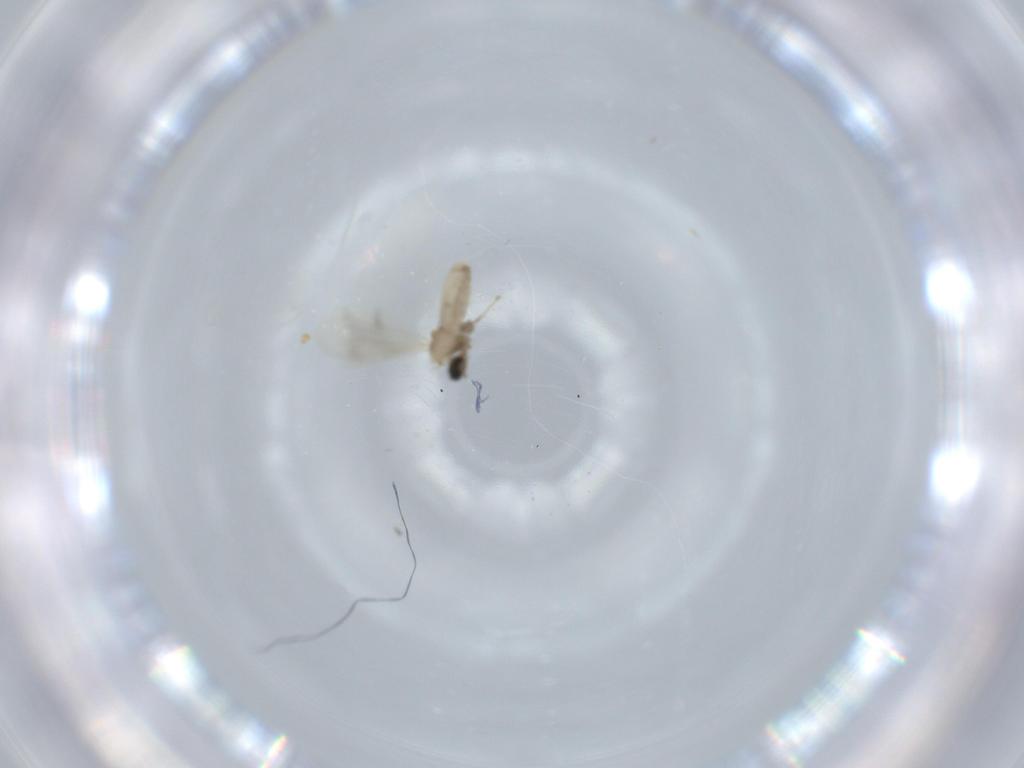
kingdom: Animalia
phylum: Arthropoda
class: Insecta
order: Diptera
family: Cecidomyiidae
